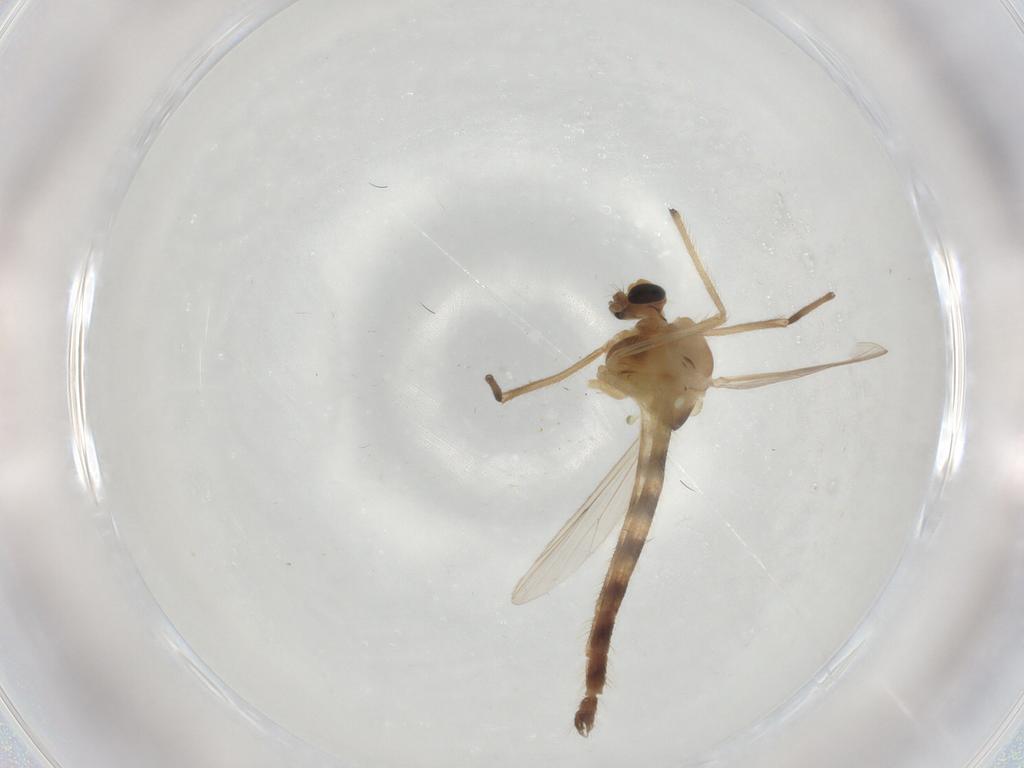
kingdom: Animalia
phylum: Arthropoda
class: Insecta
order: Diptera
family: Chironomidae
